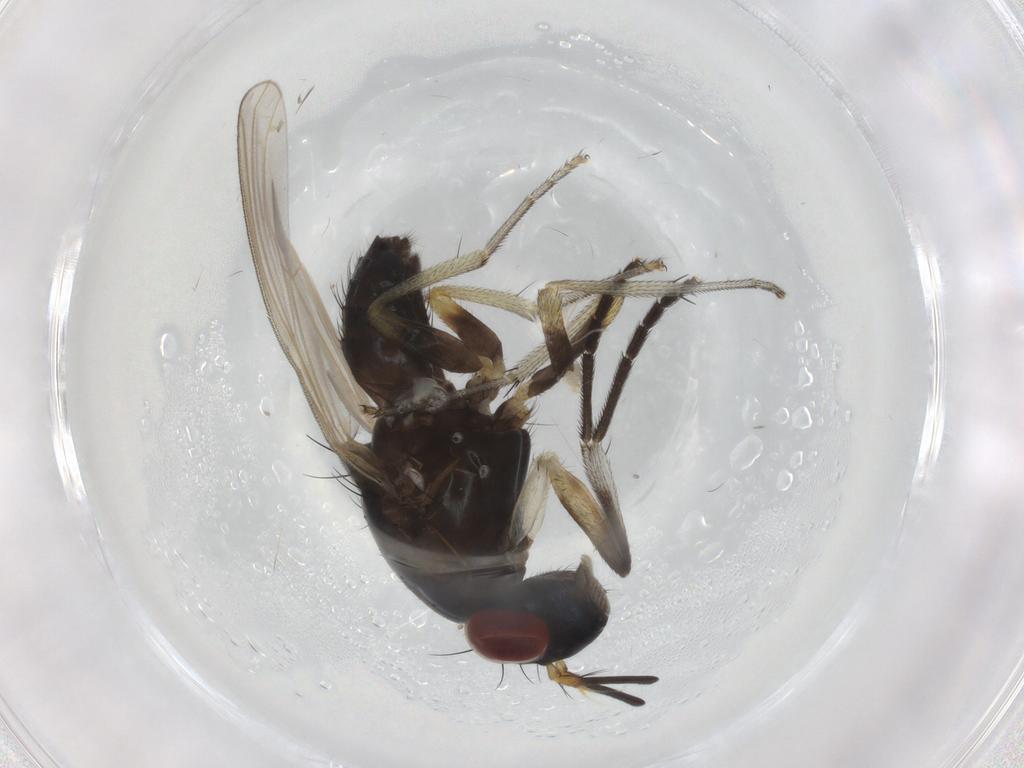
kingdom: Animalia
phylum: Arthropoda
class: Insecta
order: Diptera
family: Lauxaniidae
